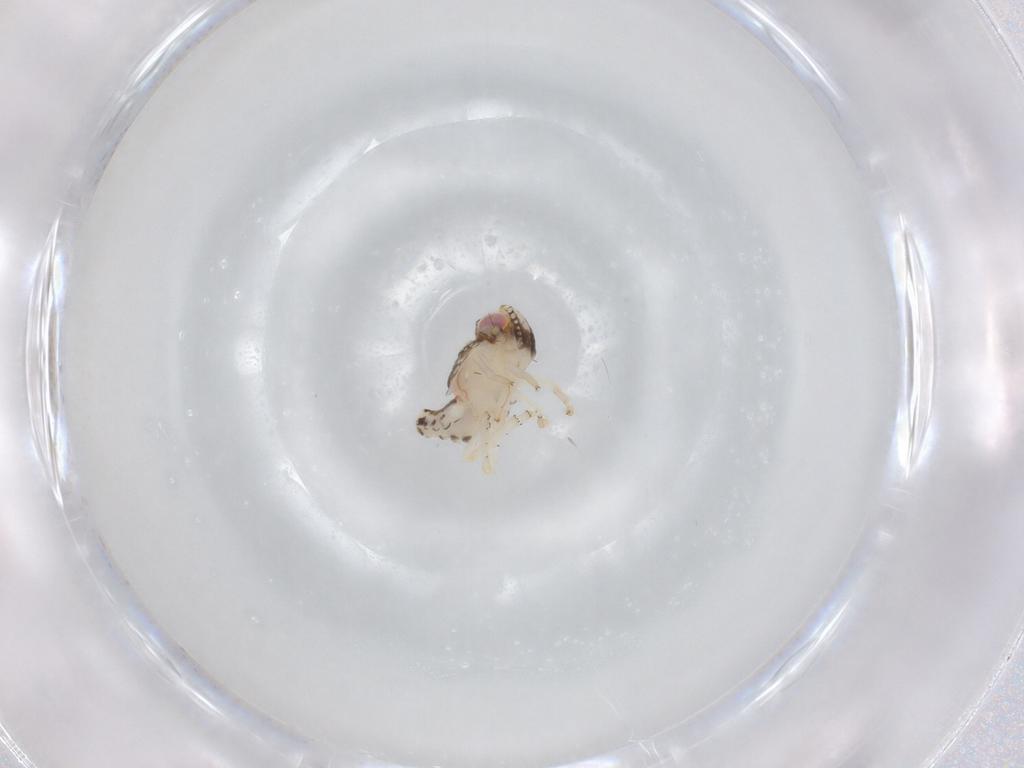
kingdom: Animalia
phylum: Arthropoda
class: Insecta
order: Hemiptera
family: Nogodinidae
